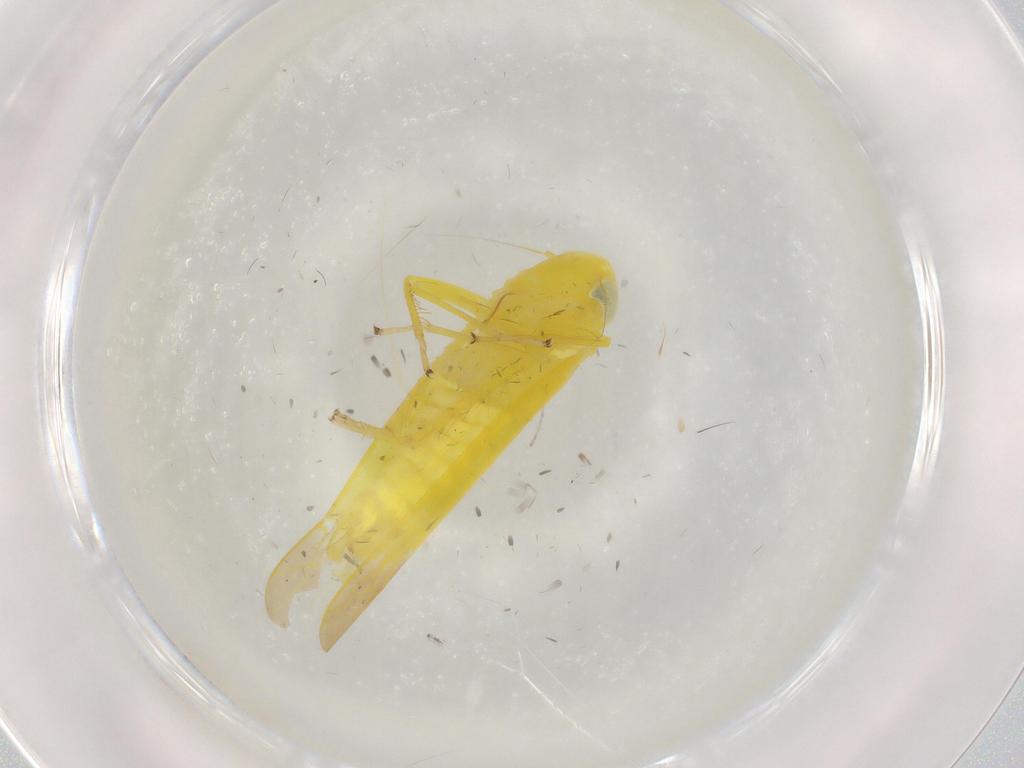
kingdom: Animalia
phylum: Arthropoda
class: Insecta
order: Hemiptera
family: Cicadellidae
